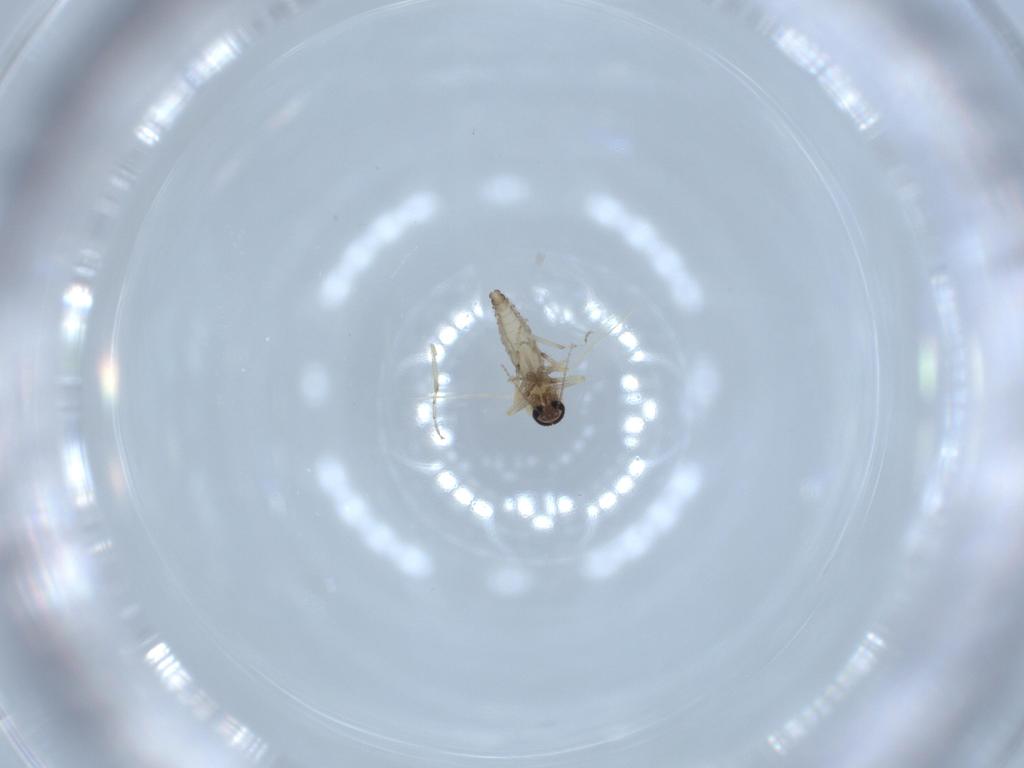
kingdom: Animalia
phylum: Arthropoda
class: Insecta
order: Diptera
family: Ceratopogonidae
